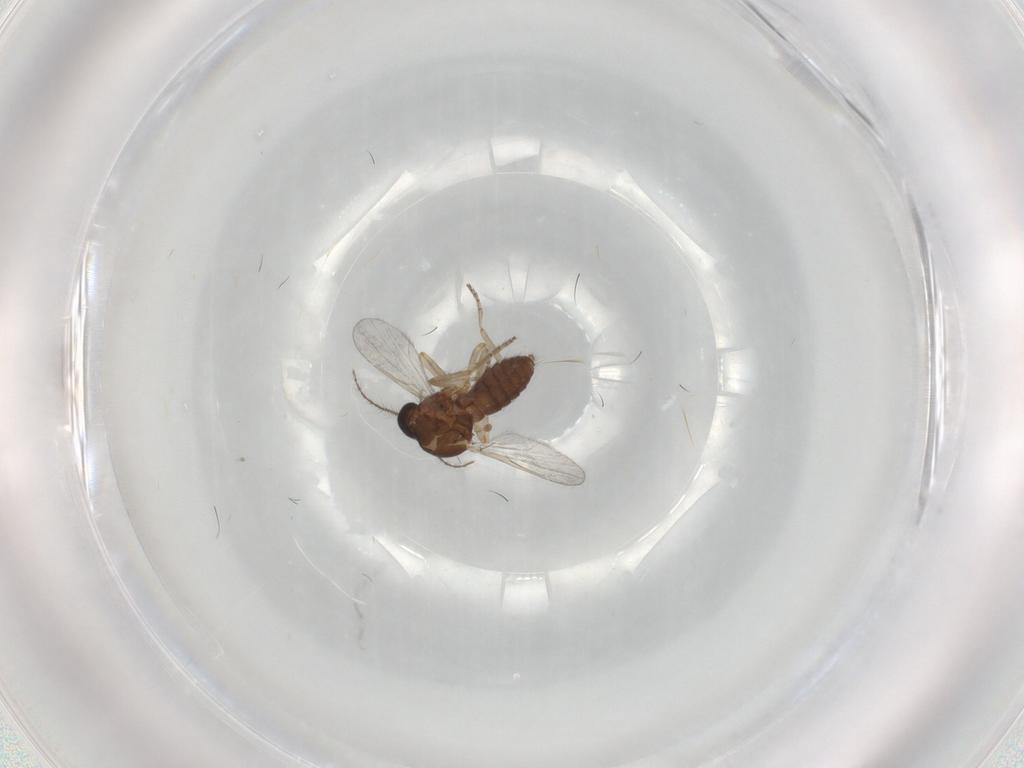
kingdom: Animalia
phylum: Arthropoda
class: Insecta
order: Diptera
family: Ceratopogonidae
